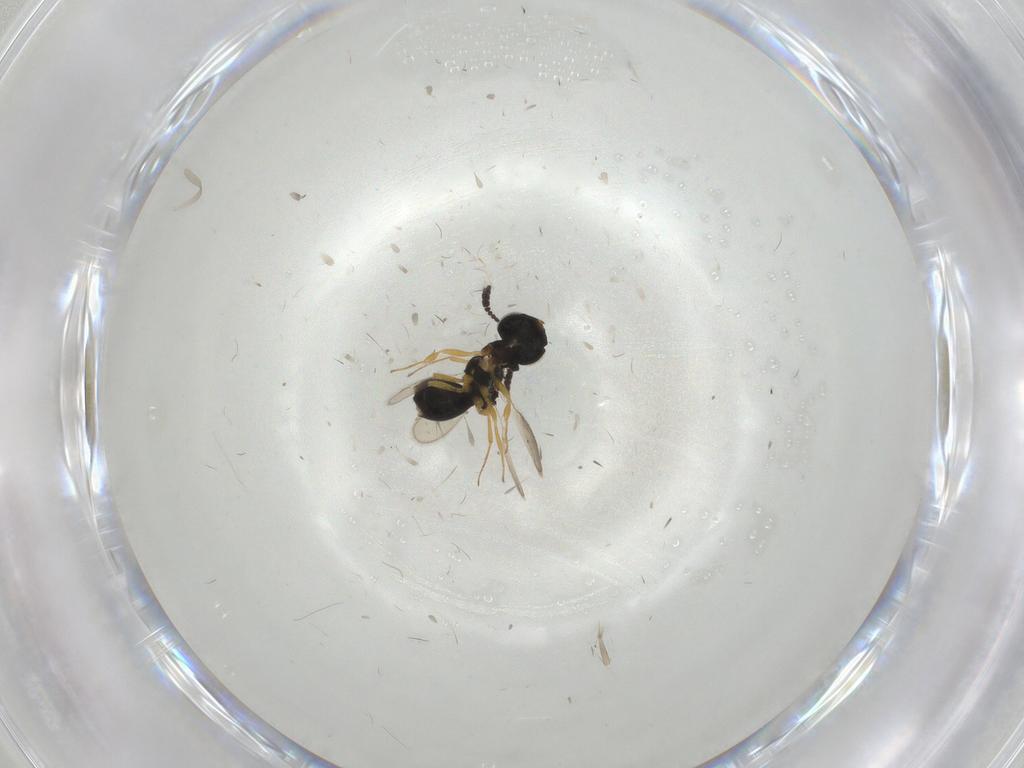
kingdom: Animalia
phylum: Arthropoda
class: Insecta
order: Hymenoptera
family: Scelionidae
